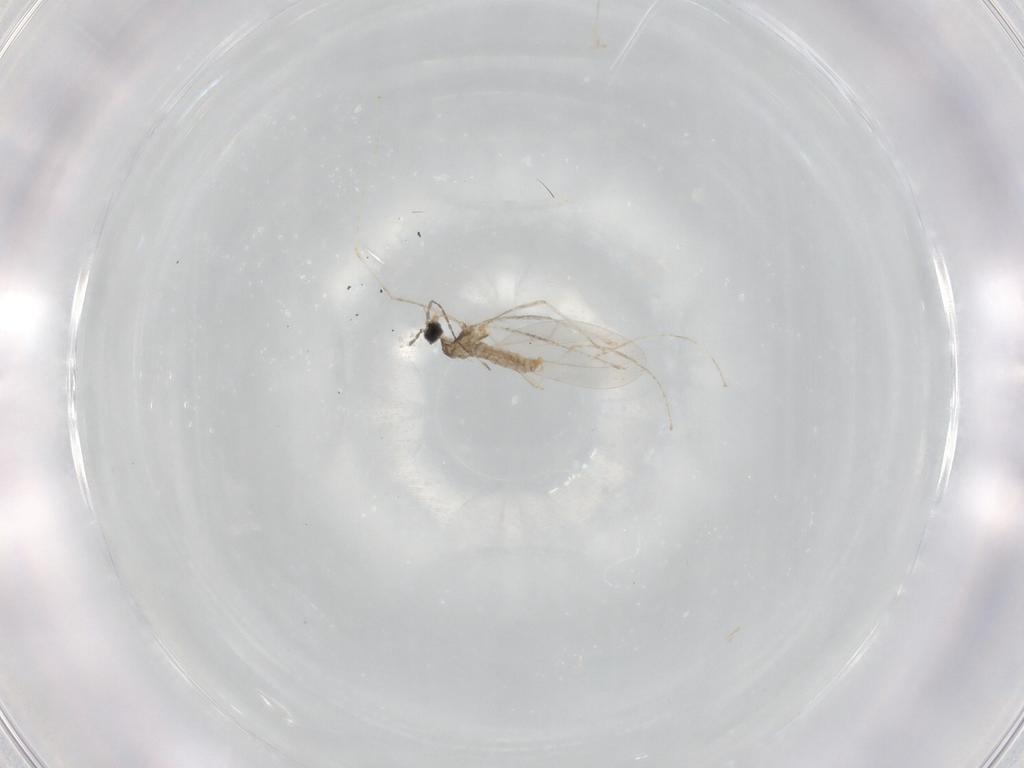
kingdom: Animalia
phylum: Arthropoda
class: Insecta
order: Diptera
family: Cecidomyiidae
